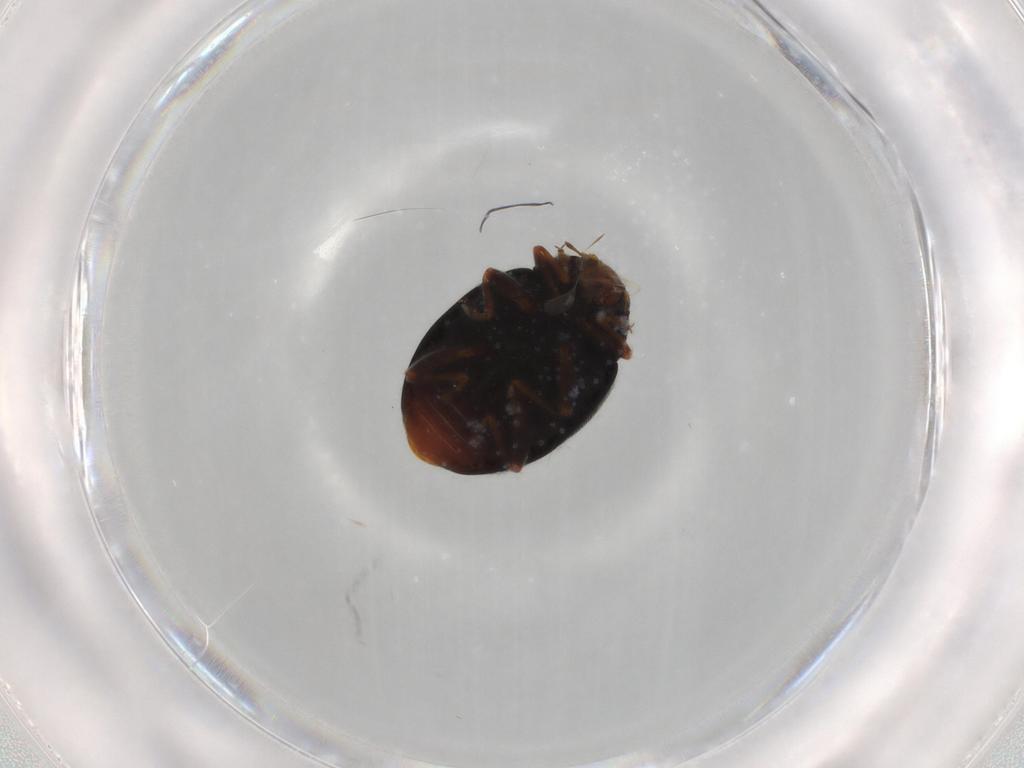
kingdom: Animalia
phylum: Arthropoda
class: Insecta
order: Coleoptera
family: Coccinellidae
